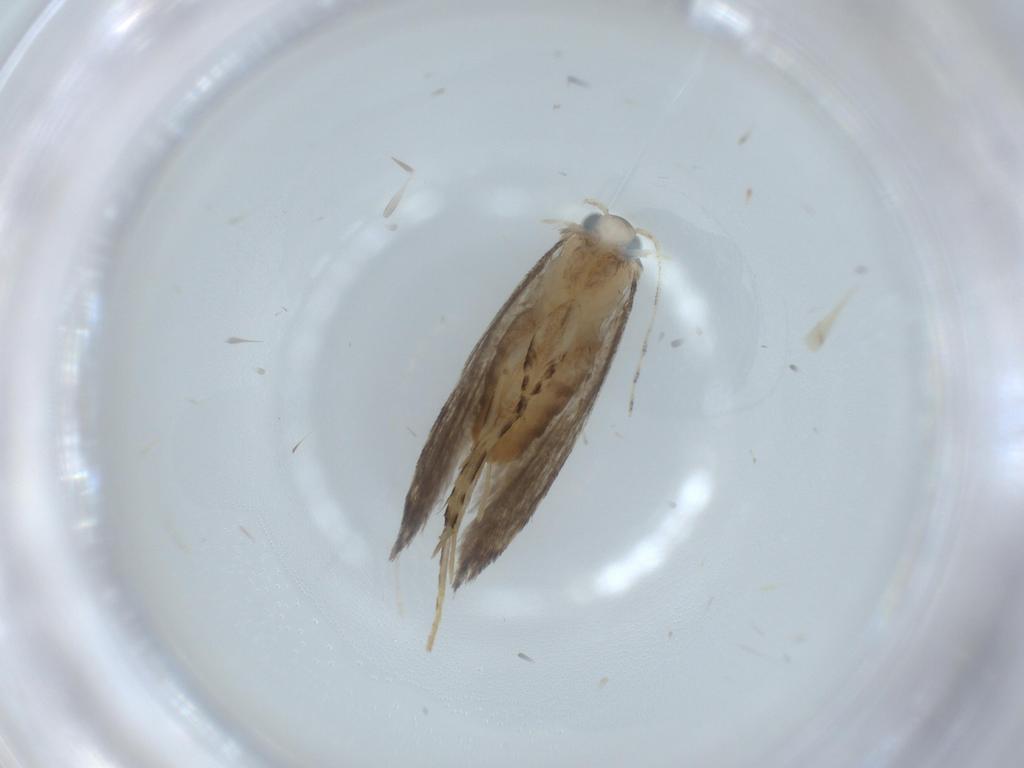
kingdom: Animalia
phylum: Arthropoda
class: Insecta
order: Lepidoptera
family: Tineidae
